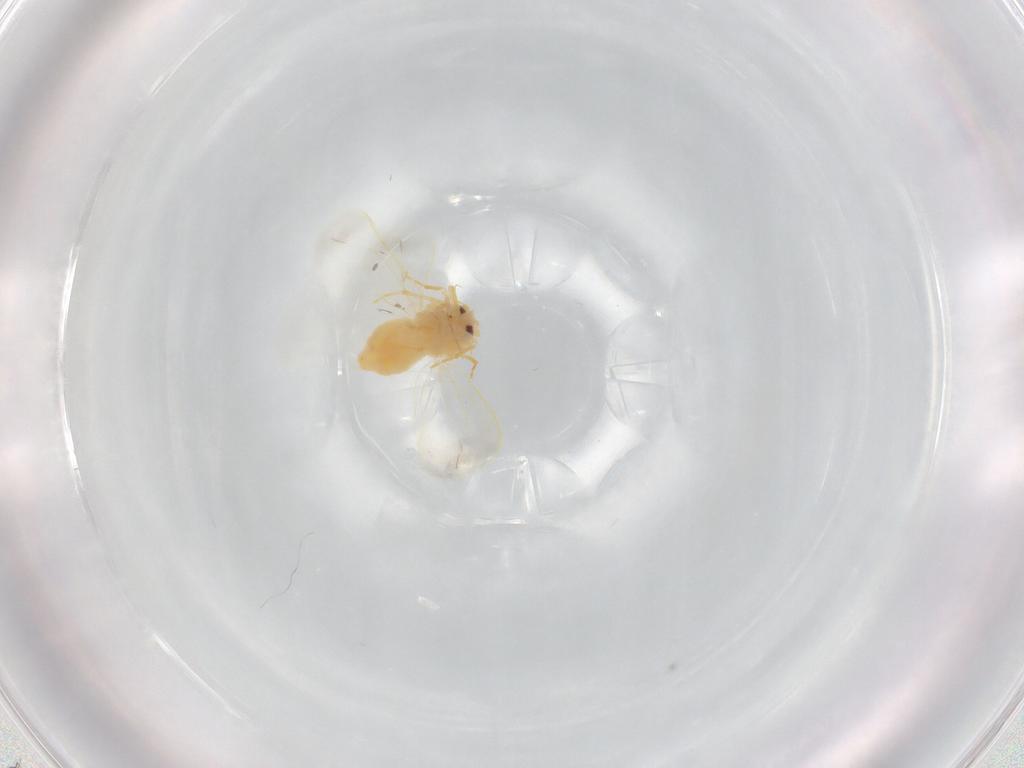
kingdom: Animalia
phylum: Arthropoda
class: Insecta
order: Hemiptera
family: Aleyrodidae
